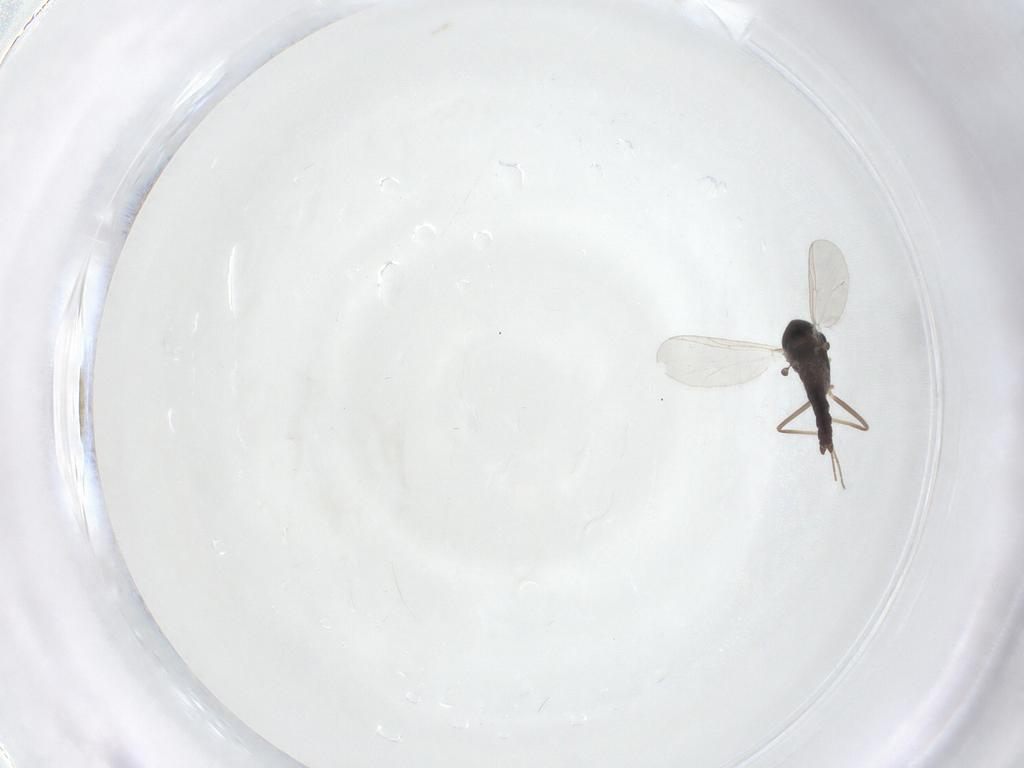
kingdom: Animalia
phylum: Arthropoda
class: Insecta
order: Diptera
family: Chironomidae
